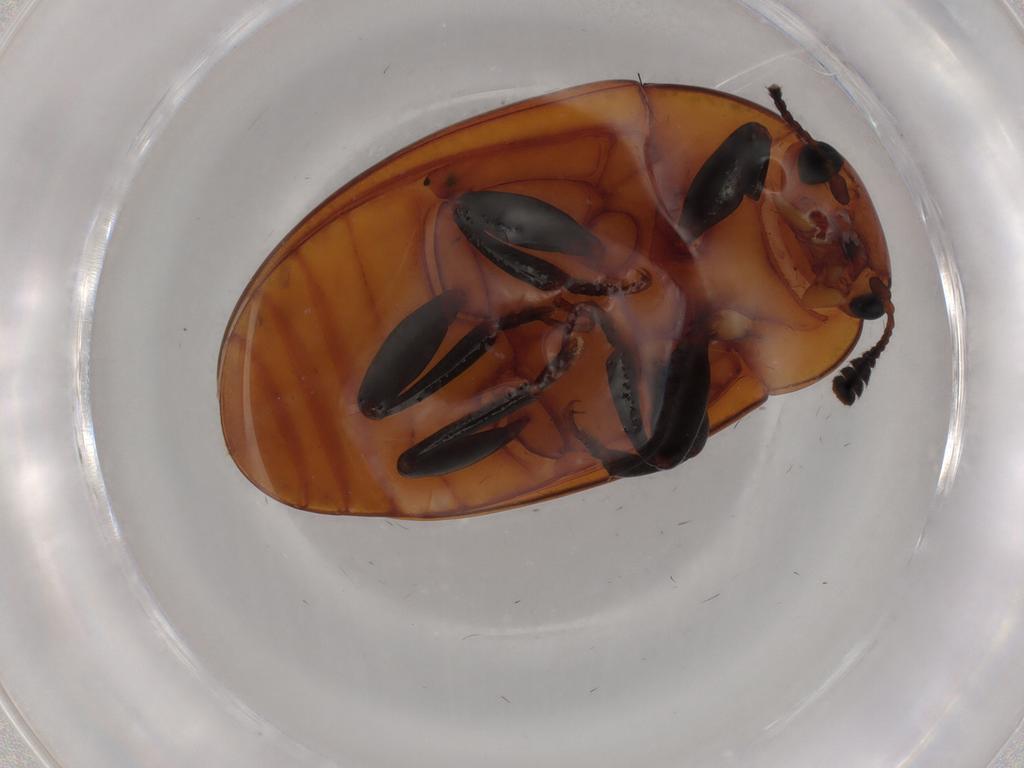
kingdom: Animalia
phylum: Arthropoda
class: Insecta
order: Coleoptera
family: Erotylidae
